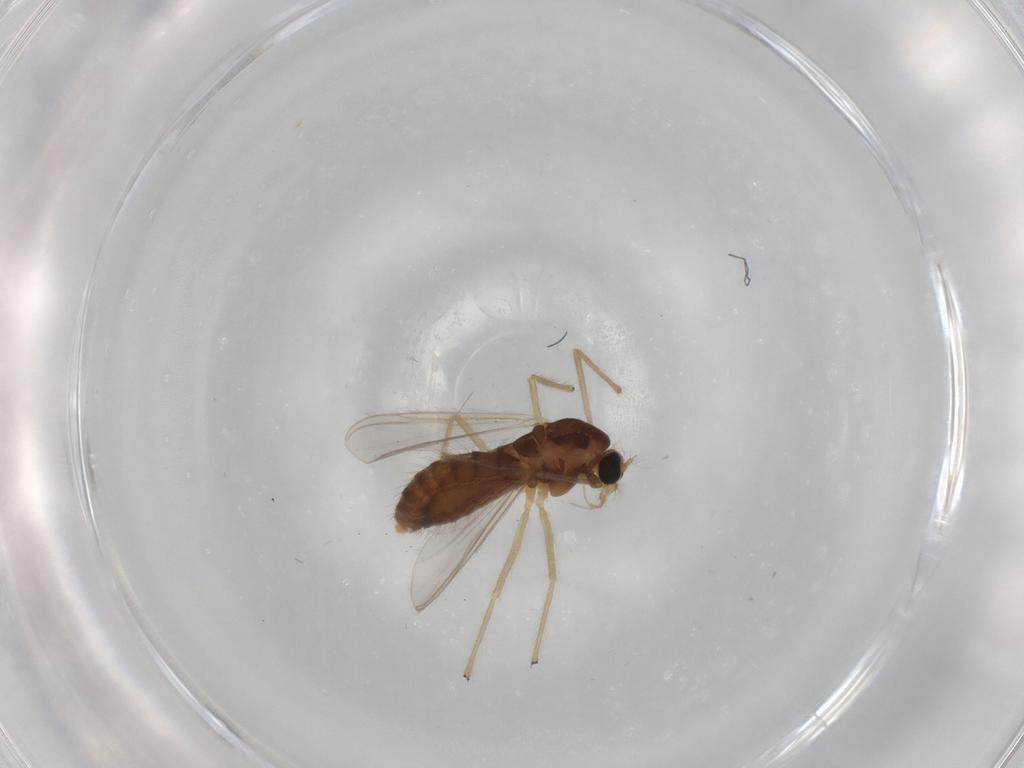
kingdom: Animalia
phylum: Arthropoda
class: Insecta
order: Diptera
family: Chironomidae
